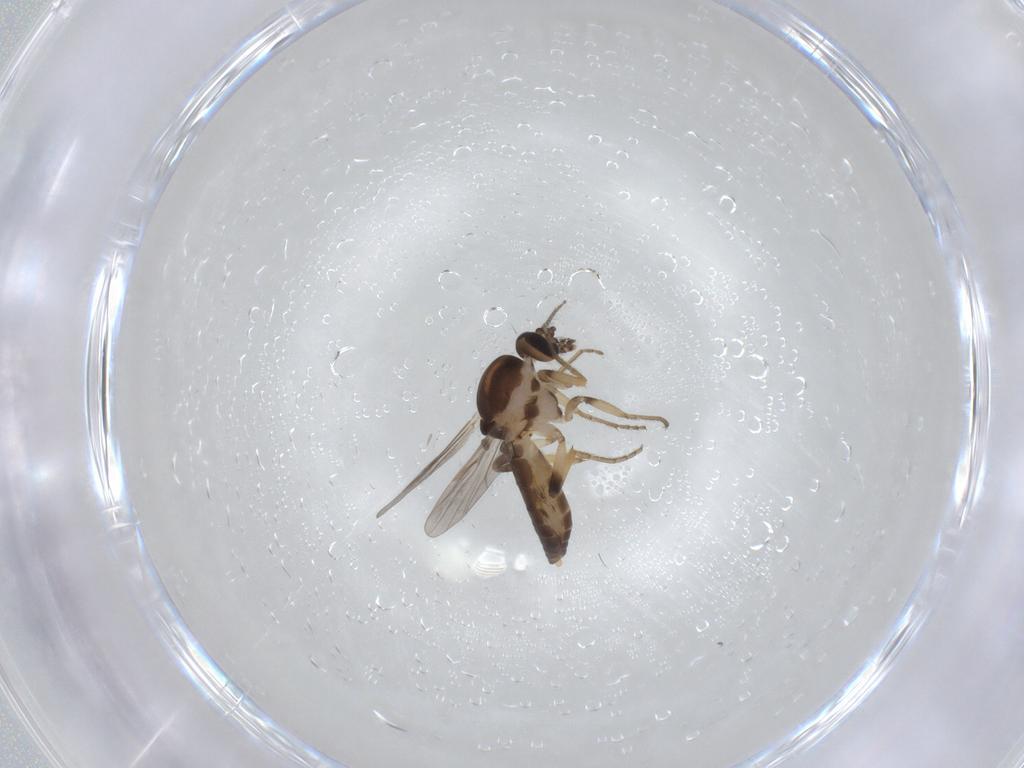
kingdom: Animalia
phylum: Arthropoda
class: Insecta
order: Diptera
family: Ceratopogonidae
